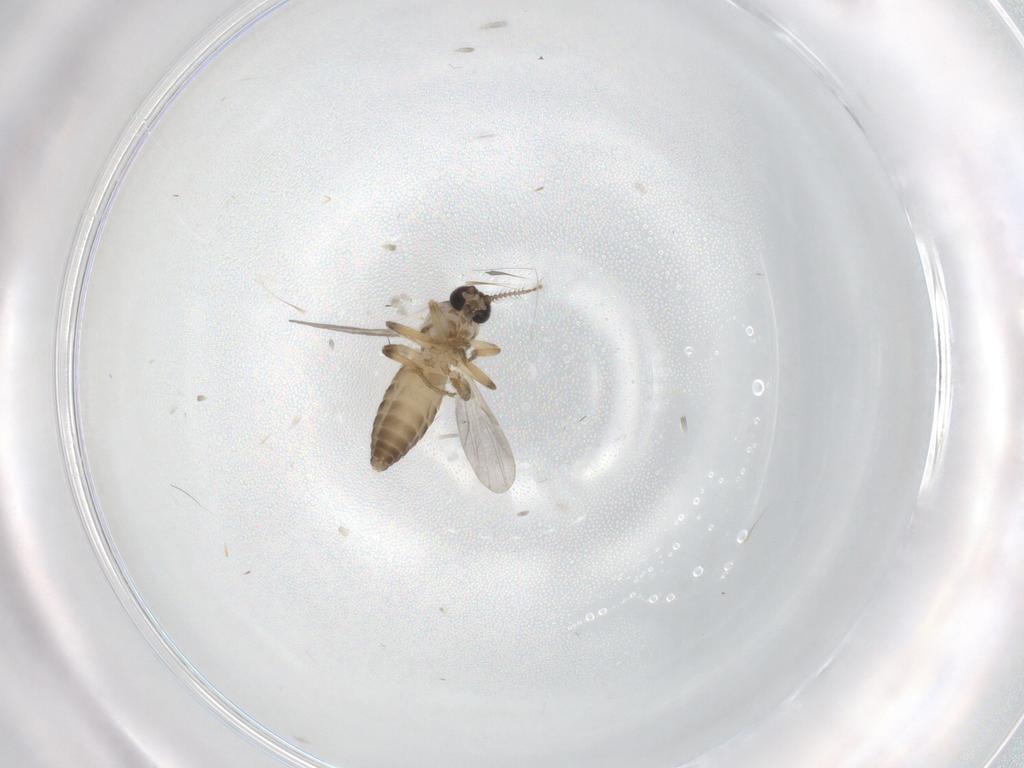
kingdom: Animalia
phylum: Arthropoda
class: Insecta
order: Diptera
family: Ceratopogonidae
